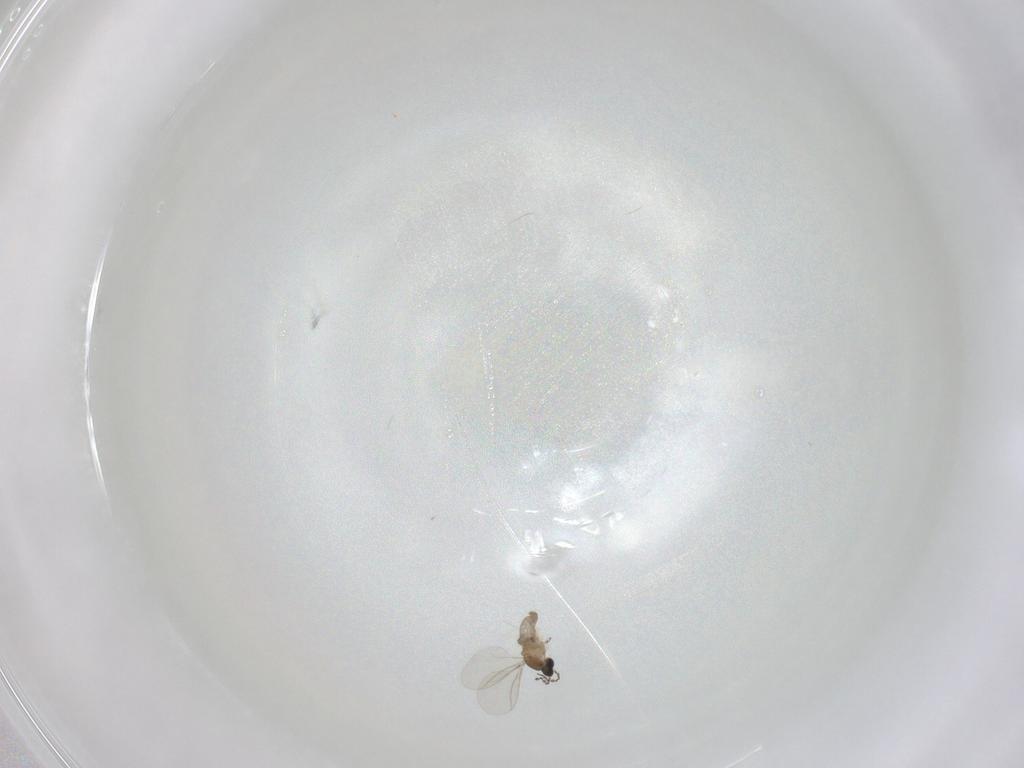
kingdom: Animalia
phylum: Arthropoda
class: Insecta
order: Diptera
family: Cecidomyiidae
